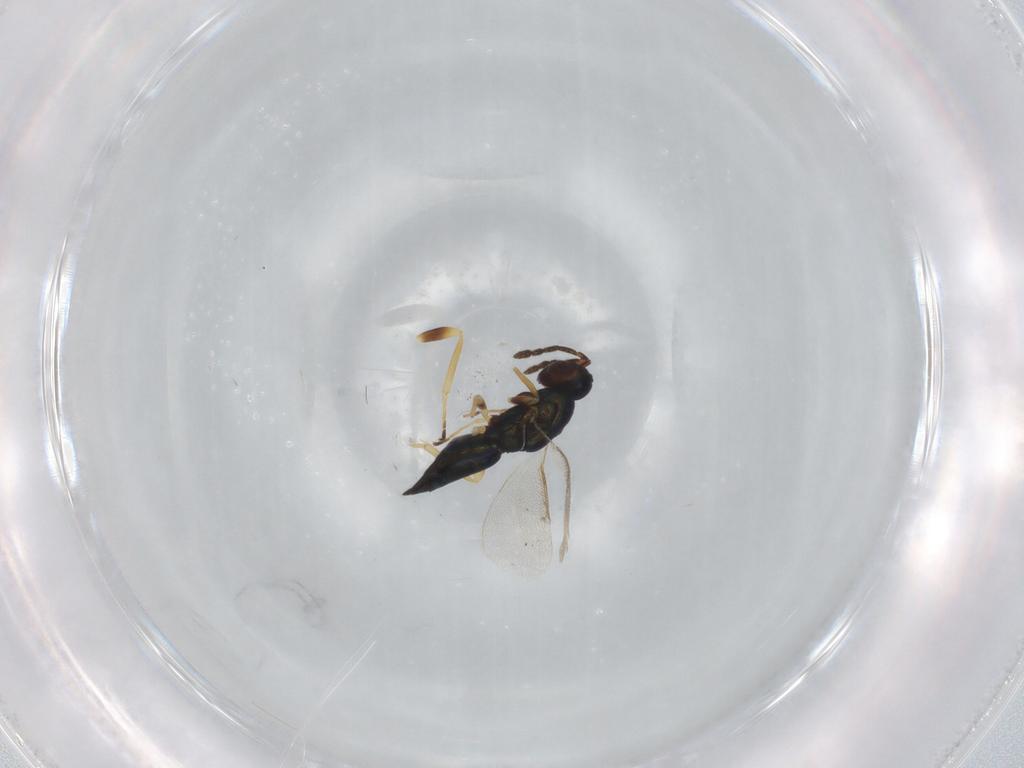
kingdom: Animalia
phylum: Arthropoda
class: Insecta
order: Hymenoptera
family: Eulophidae
